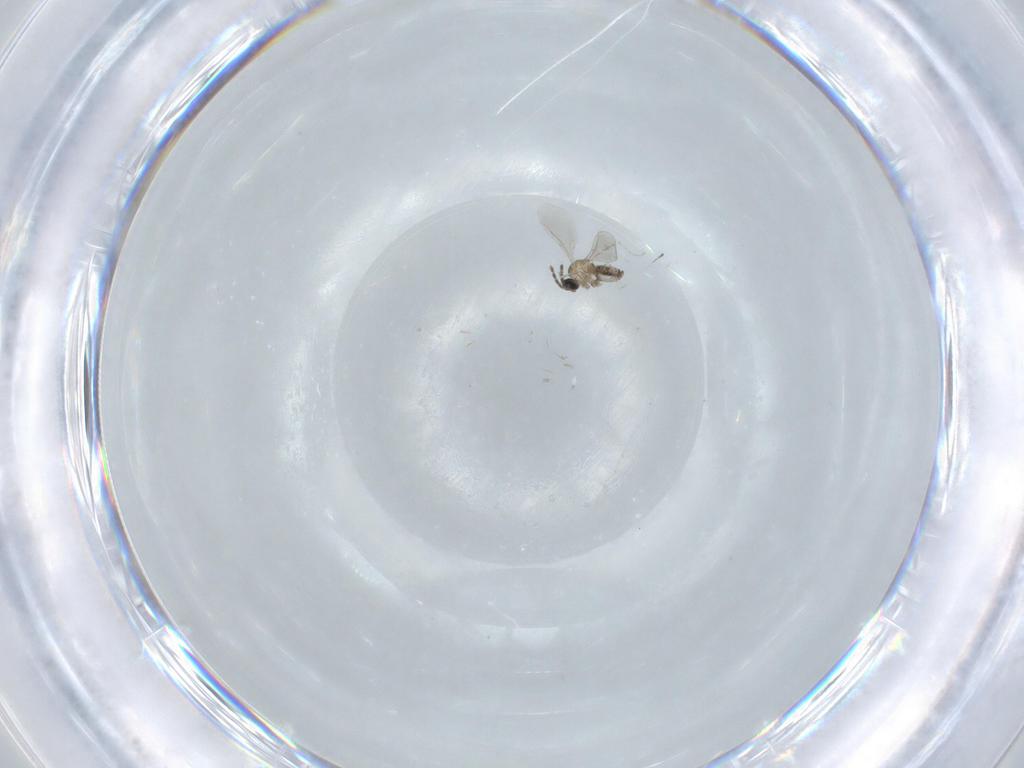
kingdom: Animalia
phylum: Arthropoda
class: Insecta
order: Diptera
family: Cecidomyiidae
